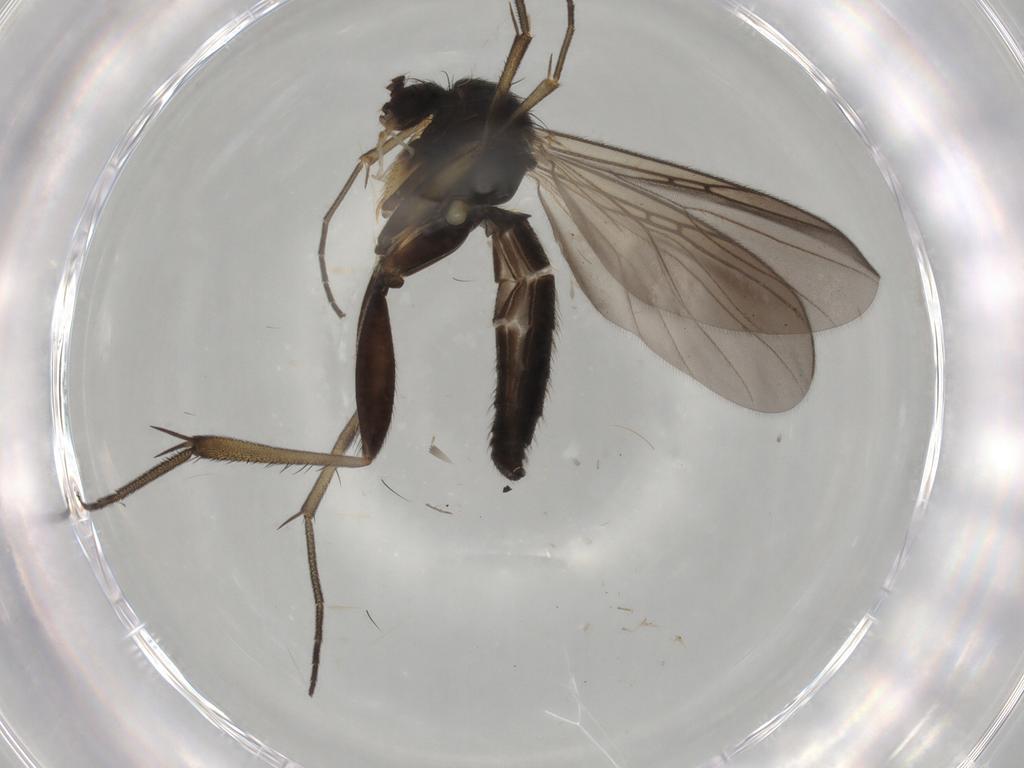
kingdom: Animalia
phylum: Arthropoda
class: Insecta
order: Diptera
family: Mycetophilidae
